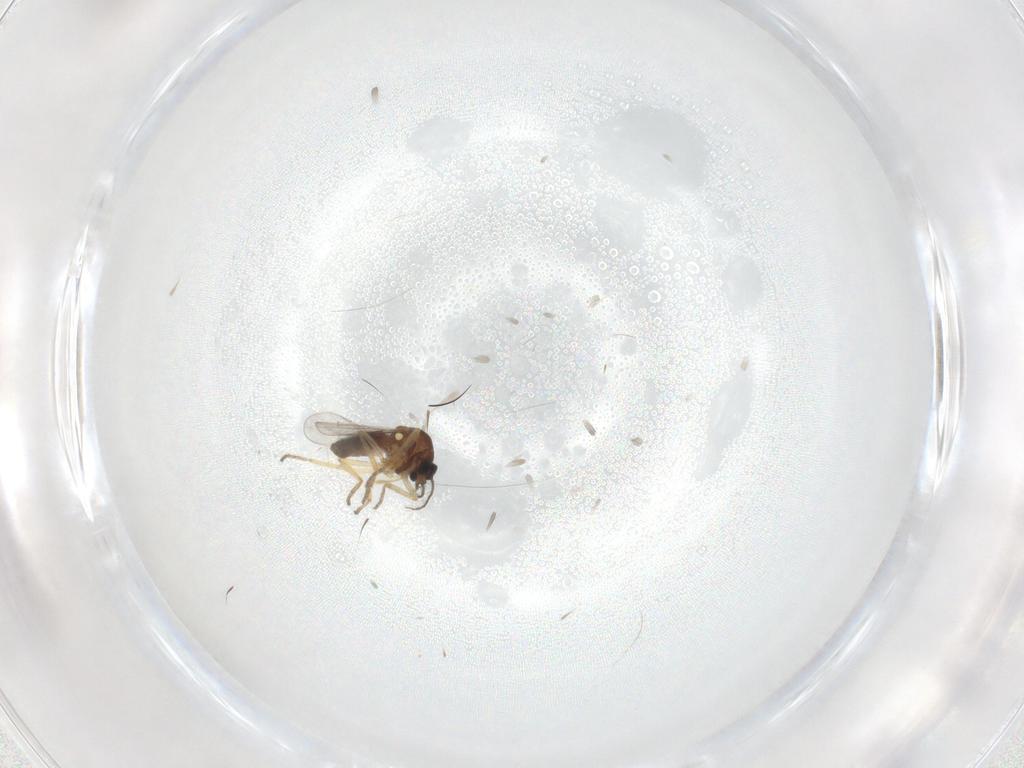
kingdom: Animalia
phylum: Arthropoda
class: Insecta
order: Diptera
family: Ceratopogonidae
